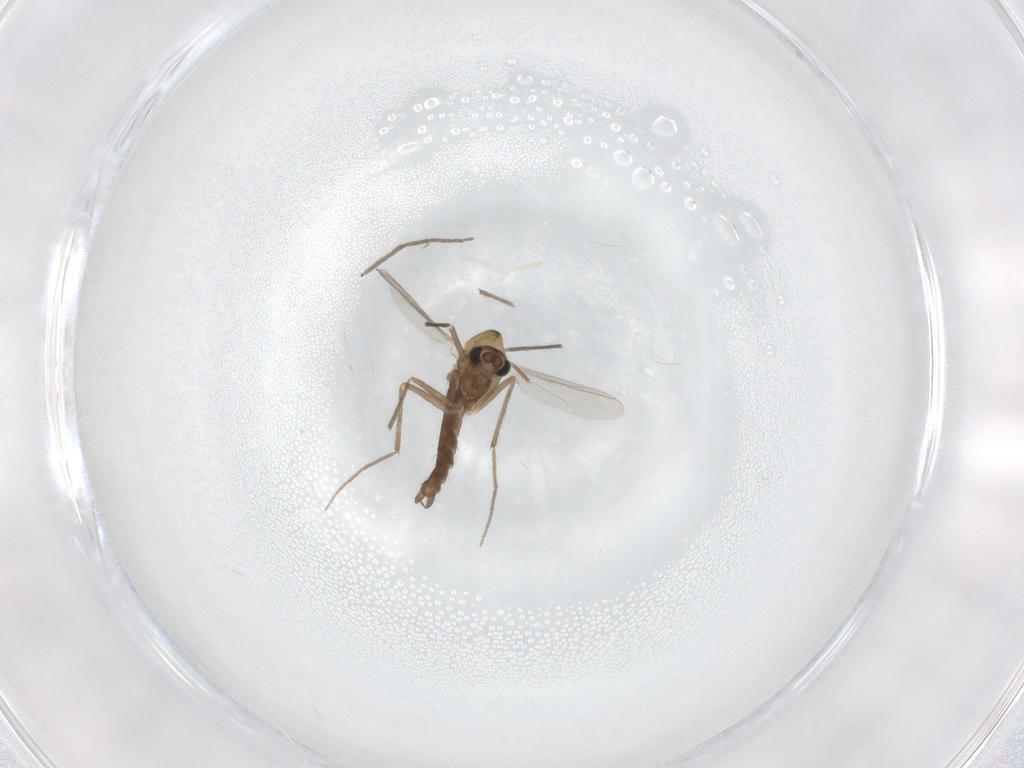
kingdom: Animalia
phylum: Arthropoda
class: Insecta
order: Diptera
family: Chironomidae
